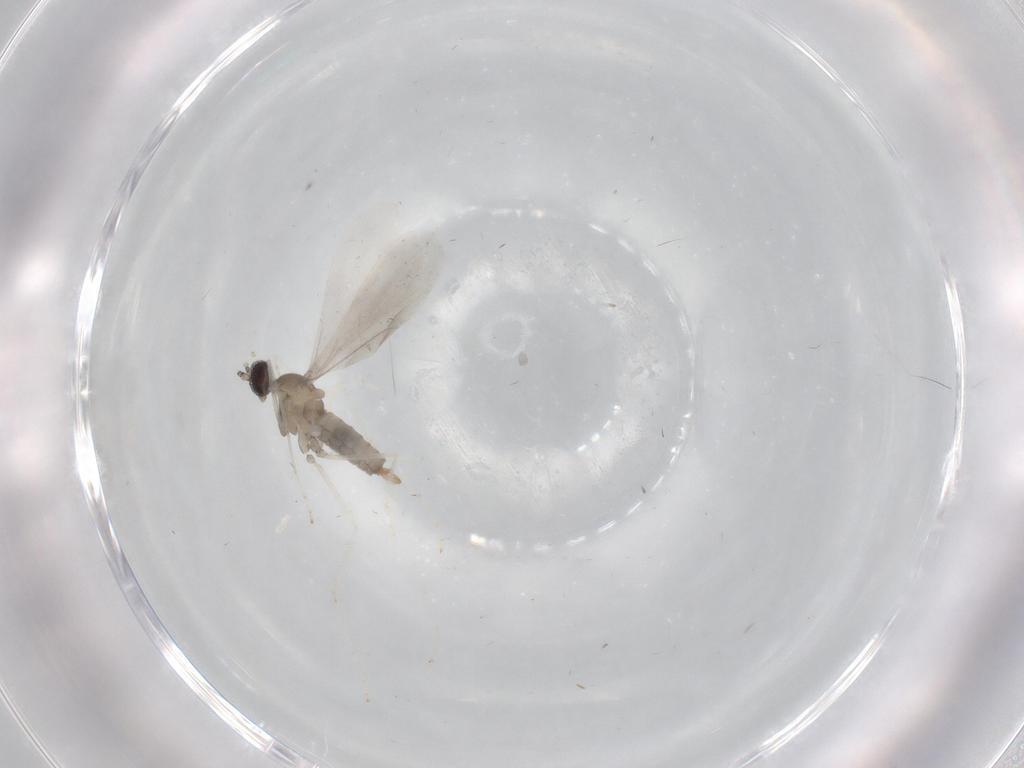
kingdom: Animalia
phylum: Arthropoda
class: Insecta
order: Diptera
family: Cecidomyiidae
